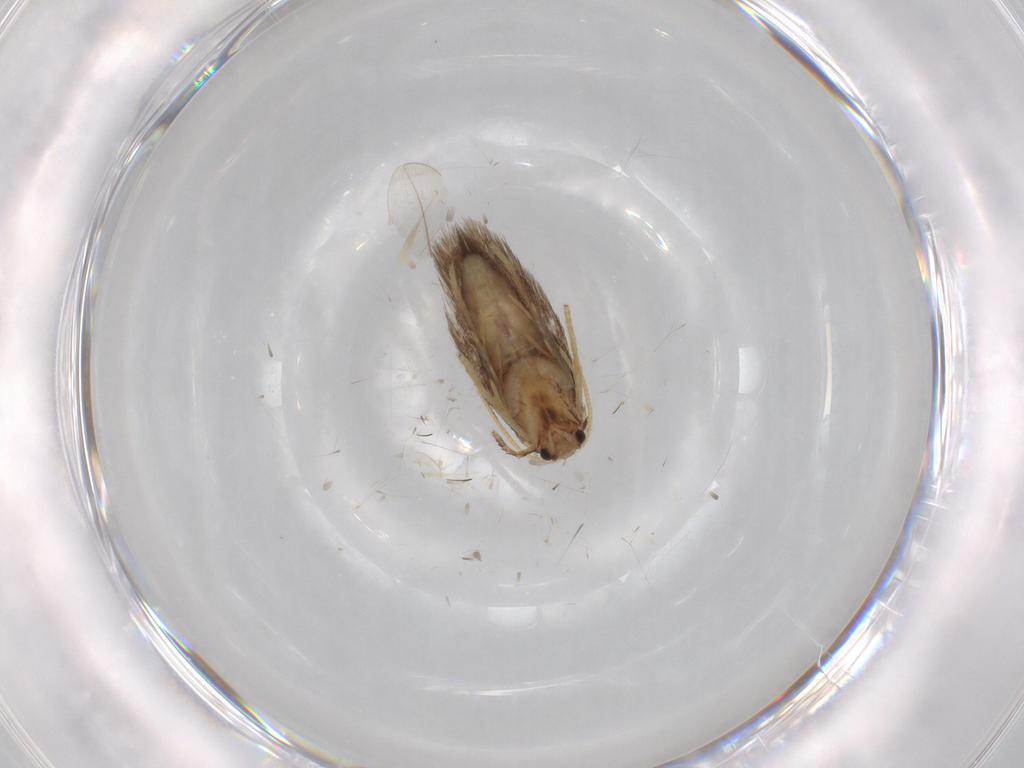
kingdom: Animalia
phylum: Arthropoda
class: Insecta
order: Lepidoptera
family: Nepticulidae
